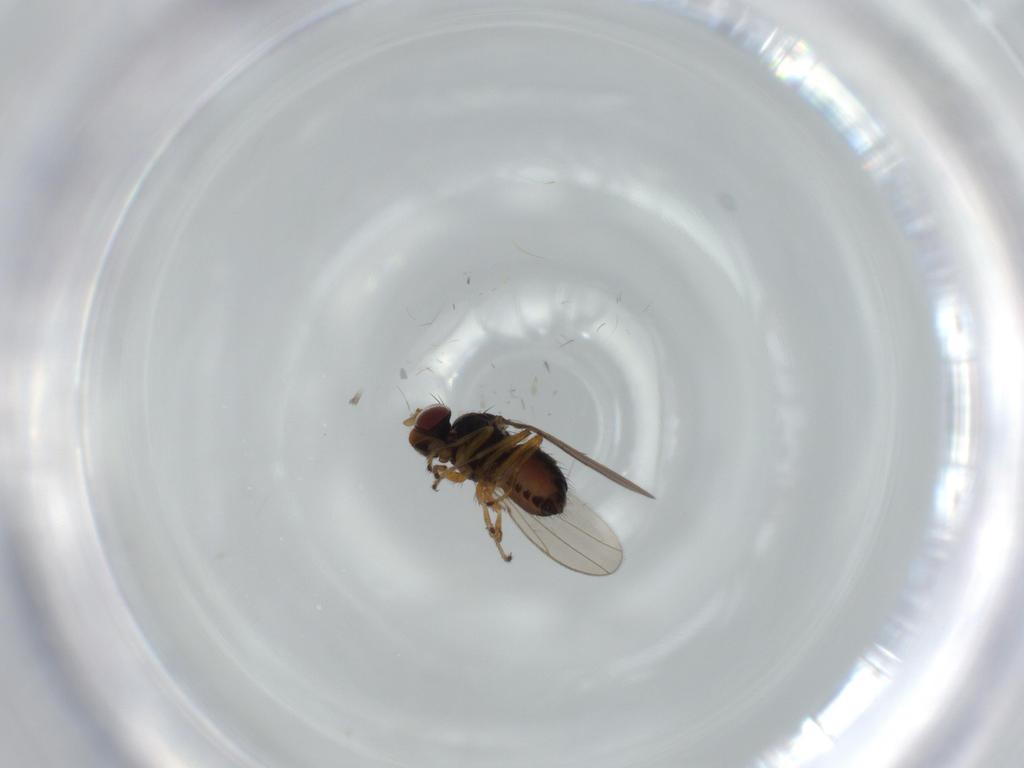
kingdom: Animalia
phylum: Arthropoda
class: Insecta
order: Diptera
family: Ephydridae
